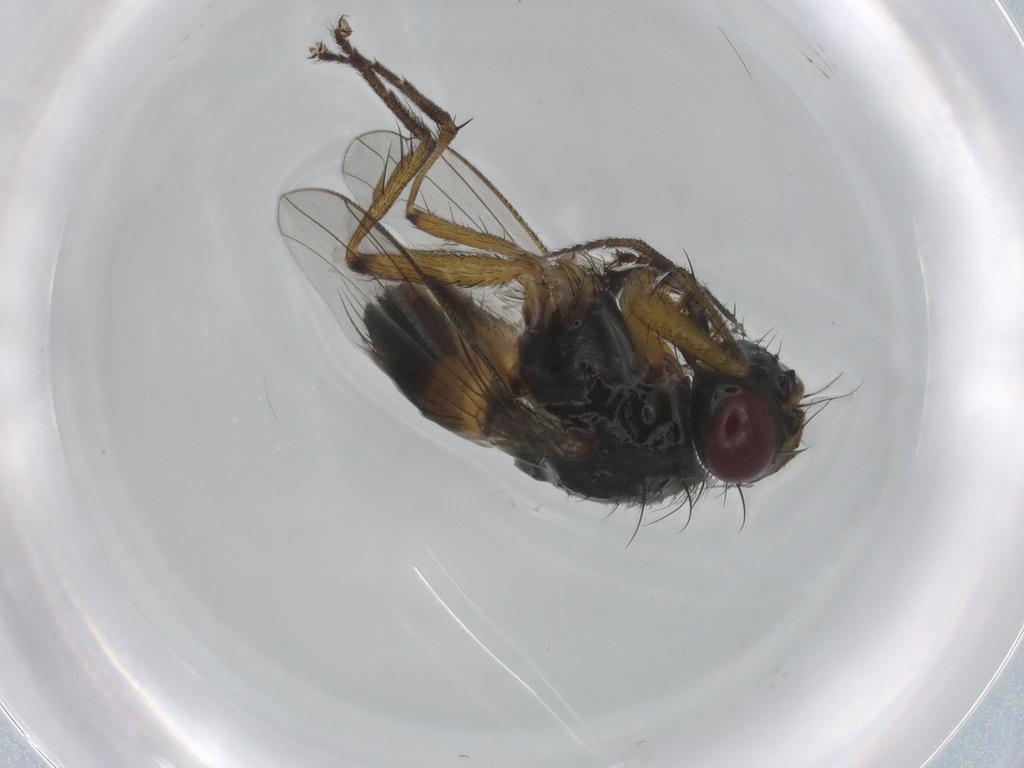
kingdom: Animalia
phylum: Arthropoda
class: Insecta
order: Diptera
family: Muscidae
